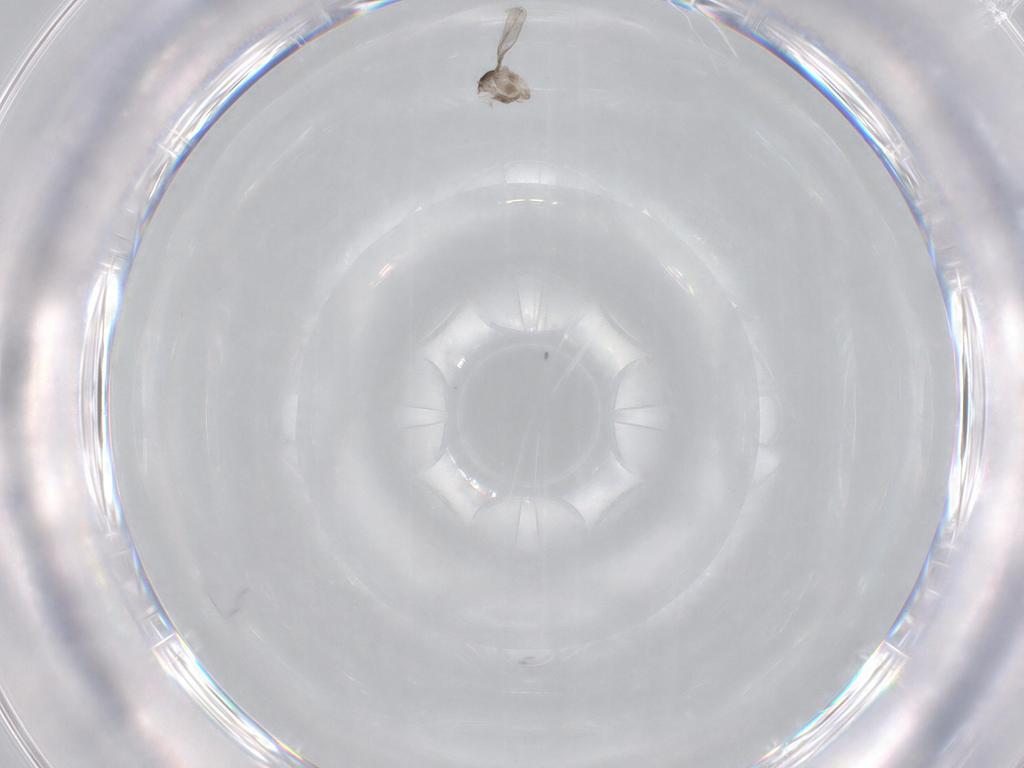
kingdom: Animalia
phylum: Arthropoda
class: Insecta
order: Diptera
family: Cecidomyiidae
